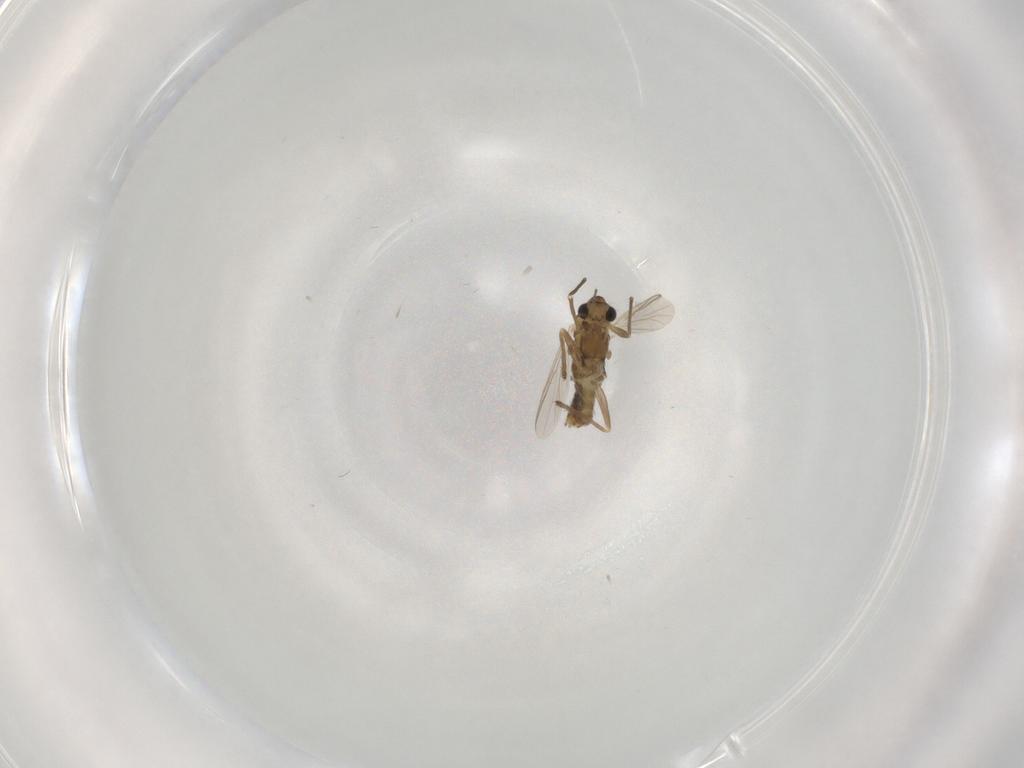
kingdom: Animalia
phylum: Arthropoda
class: Insecta
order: Diptera
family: Chironomidae
